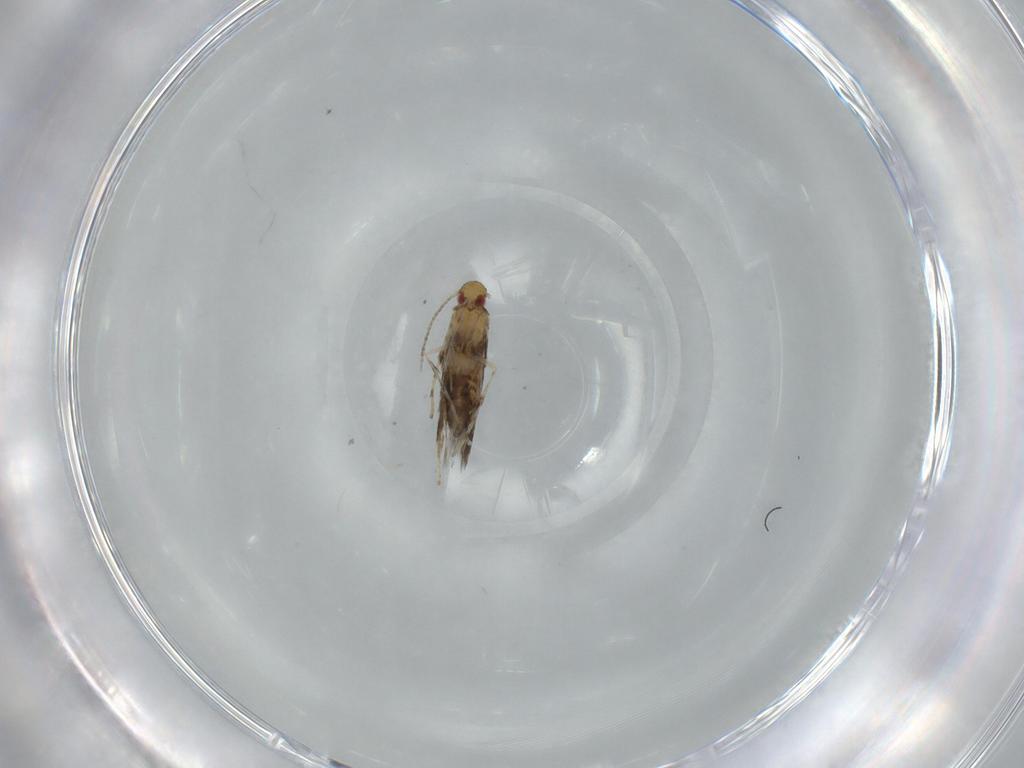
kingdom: Animalia
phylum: Arthropoda
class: Insecta
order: Lepidoptera
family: Gracillariidae
